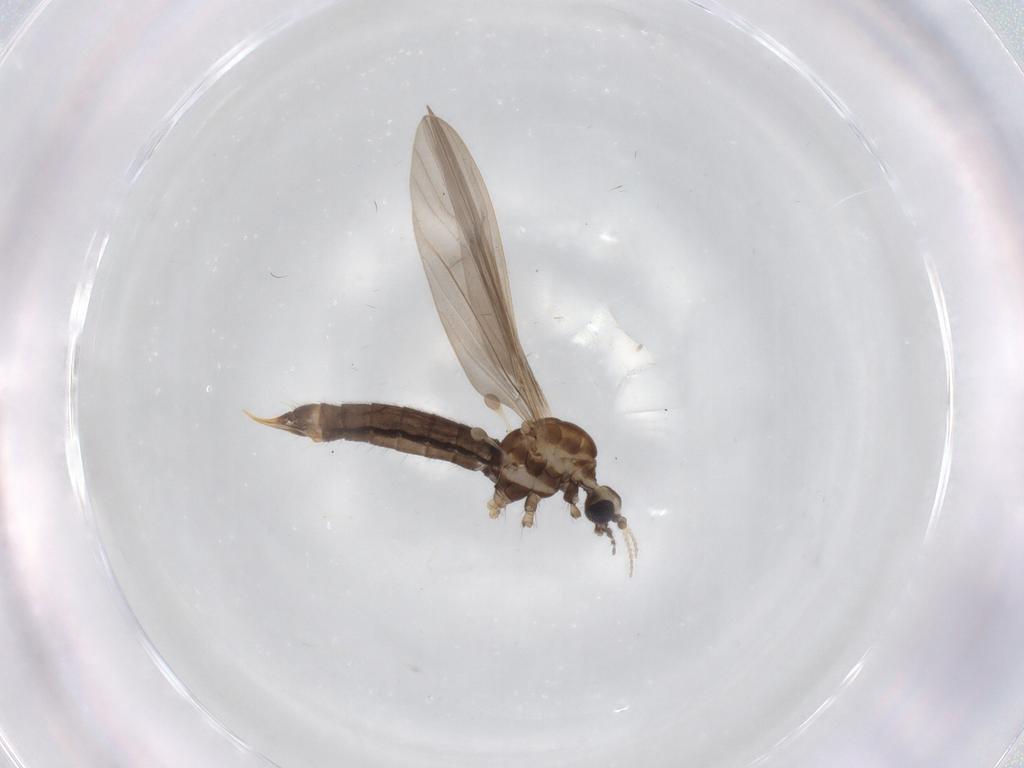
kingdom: Animalia
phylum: Arthropoda
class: Insecta
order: Diptera
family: Limoniidae
